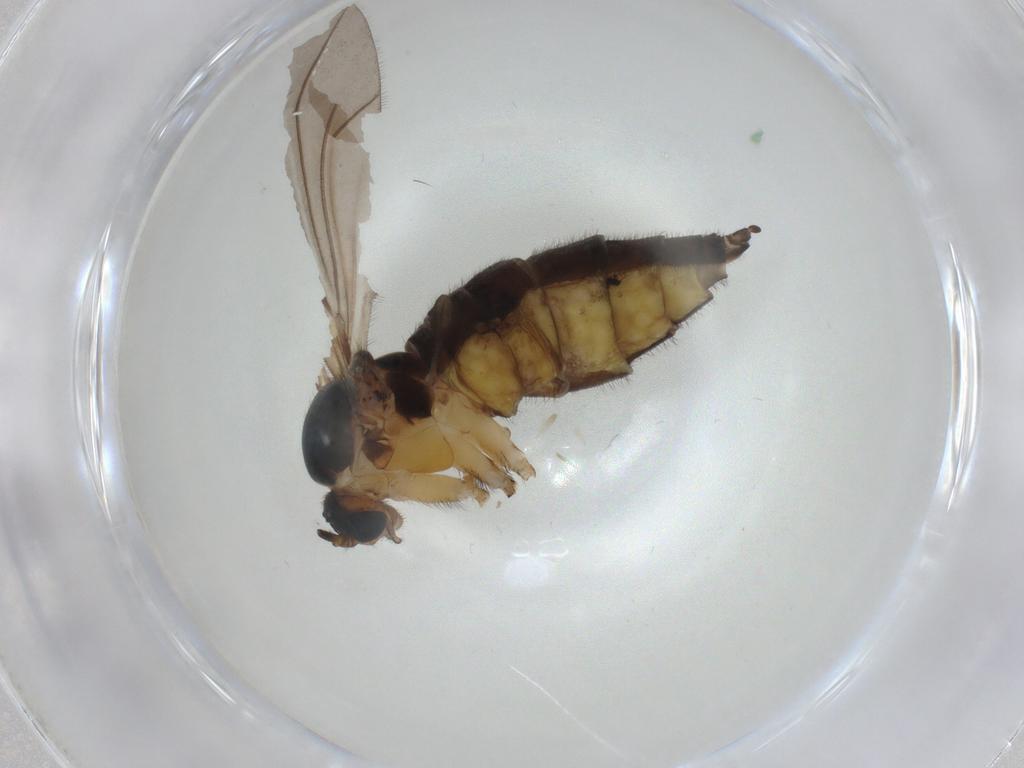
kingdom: Animalia
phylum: Arthropoda
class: Insecta
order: Diptera
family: Sciaridae
